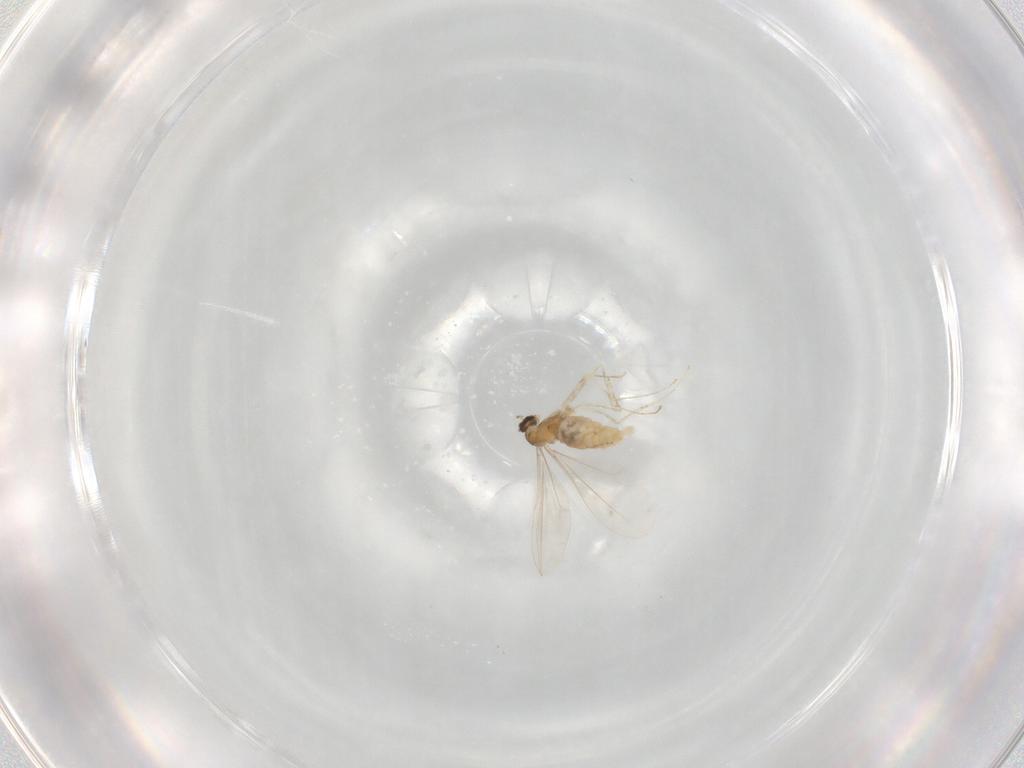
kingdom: Animalia
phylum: Arthropoda
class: Insecta
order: Diptera
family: Cecidomyiidae
